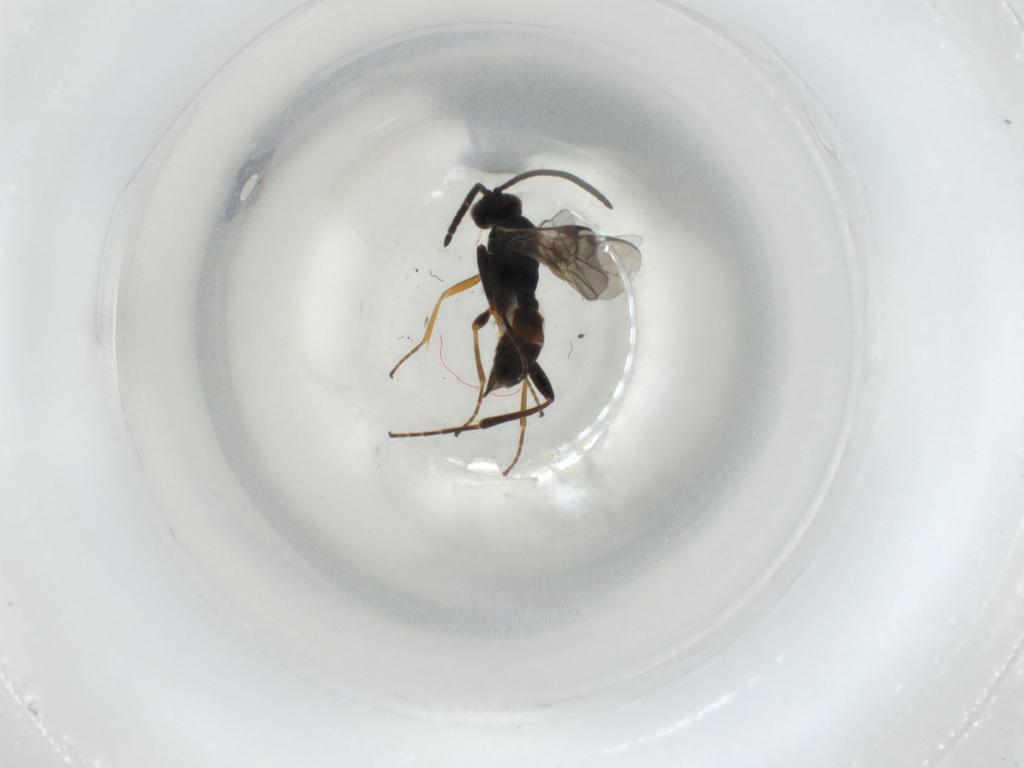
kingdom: Animalia
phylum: Arthropoda
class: Insecta
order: Hymenoptera
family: Braconidae
